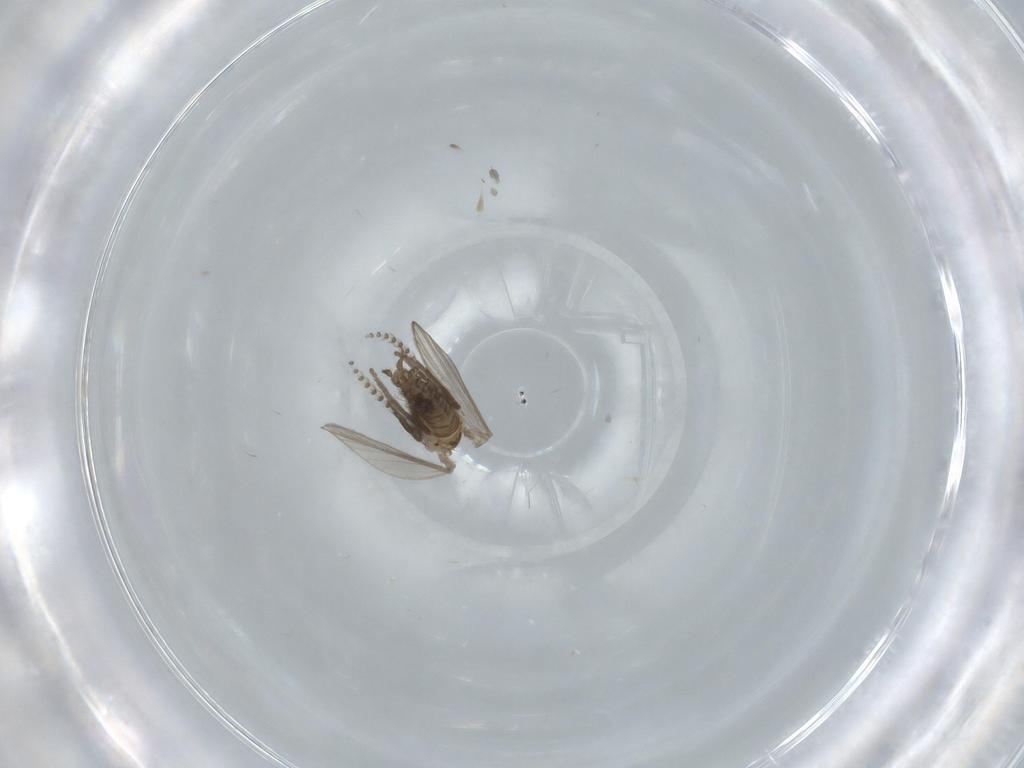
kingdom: Animalia
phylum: Arthropoda
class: Insecta
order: Diptera
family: Psychodidae
